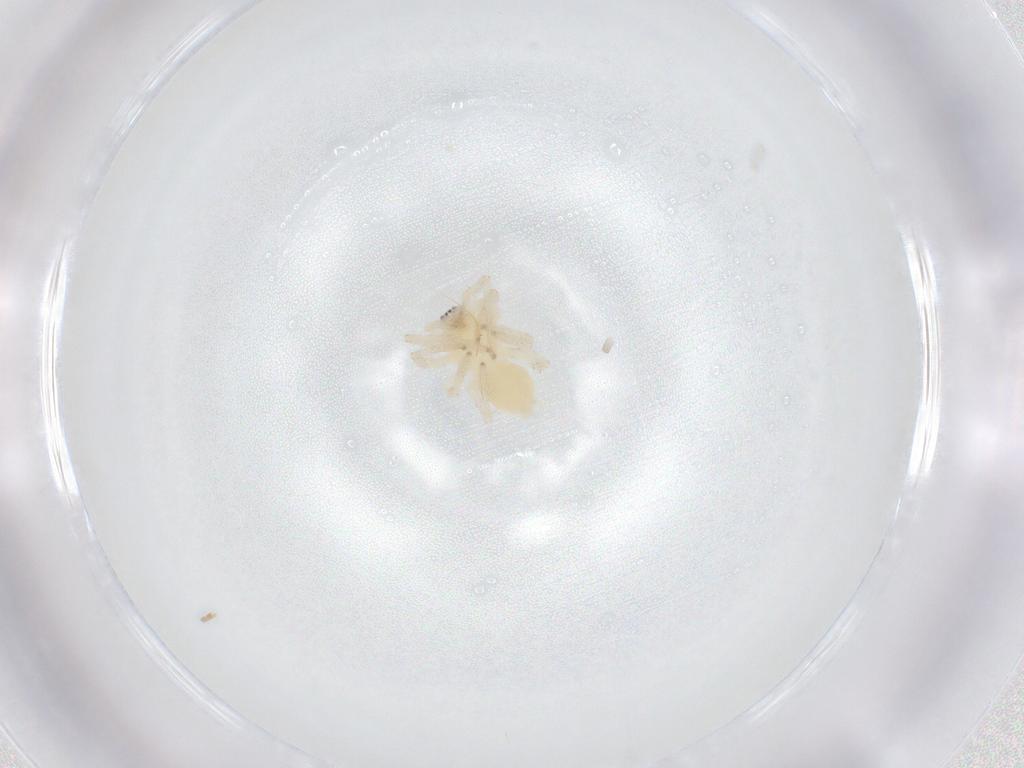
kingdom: Animalia
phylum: Arthropoda
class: Arachnida
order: Araneae
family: Anyphaenidae
